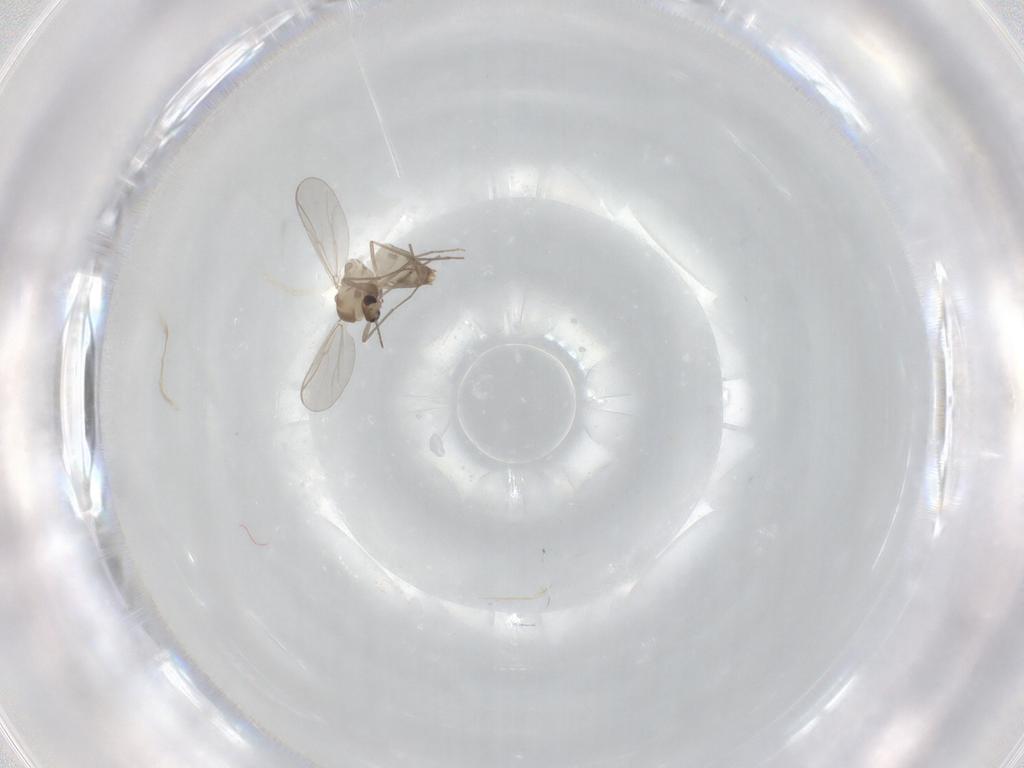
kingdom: Animalia
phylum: Arthropoda
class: Insecta
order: Diptera
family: Chironomidae
